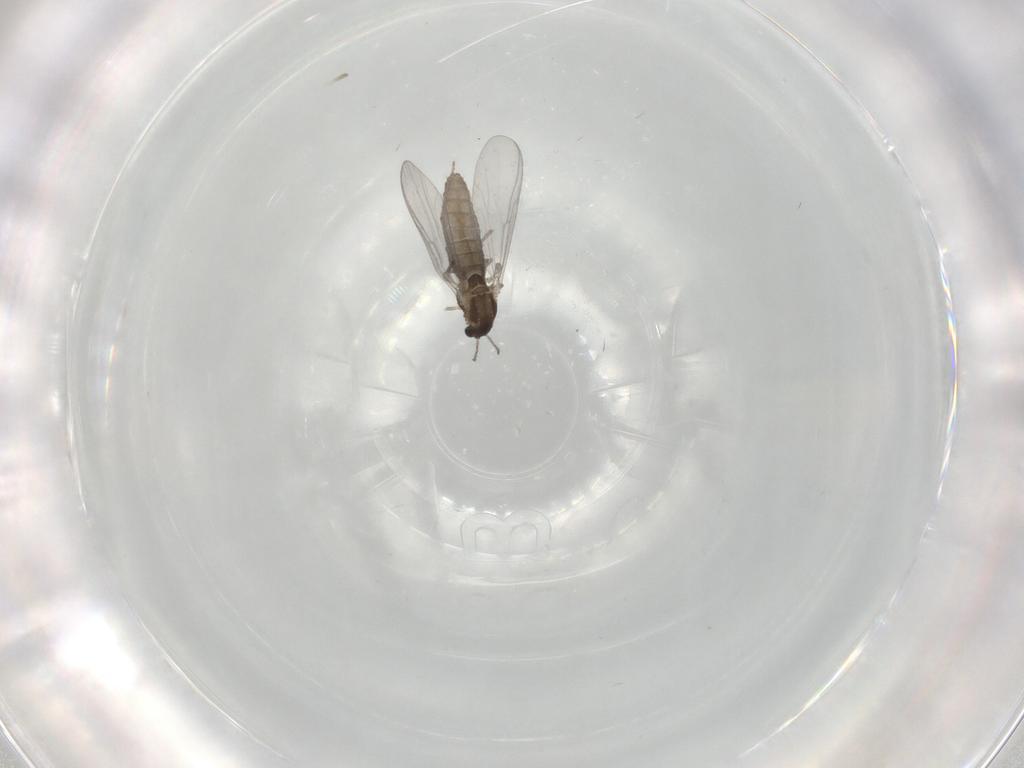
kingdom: Animalia
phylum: Arthropoda
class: Insecta
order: Diptera
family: Chironomidae
